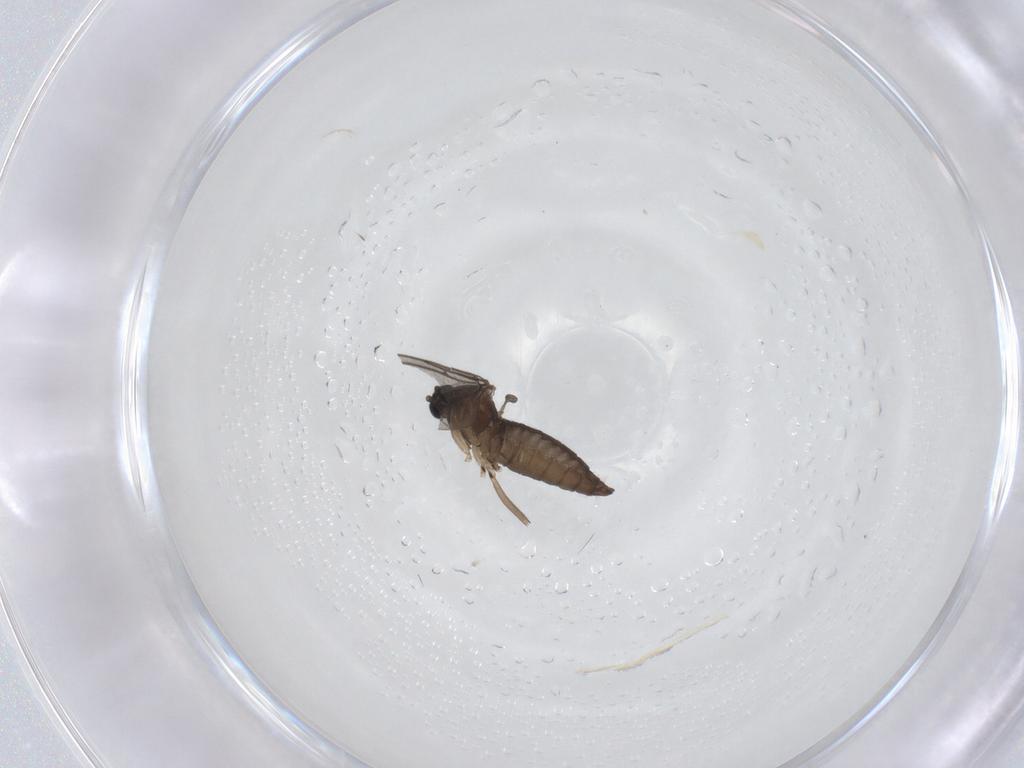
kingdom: Animalia
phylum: Arthropoda
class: Insecta
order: Diptera
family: Sciaridae
